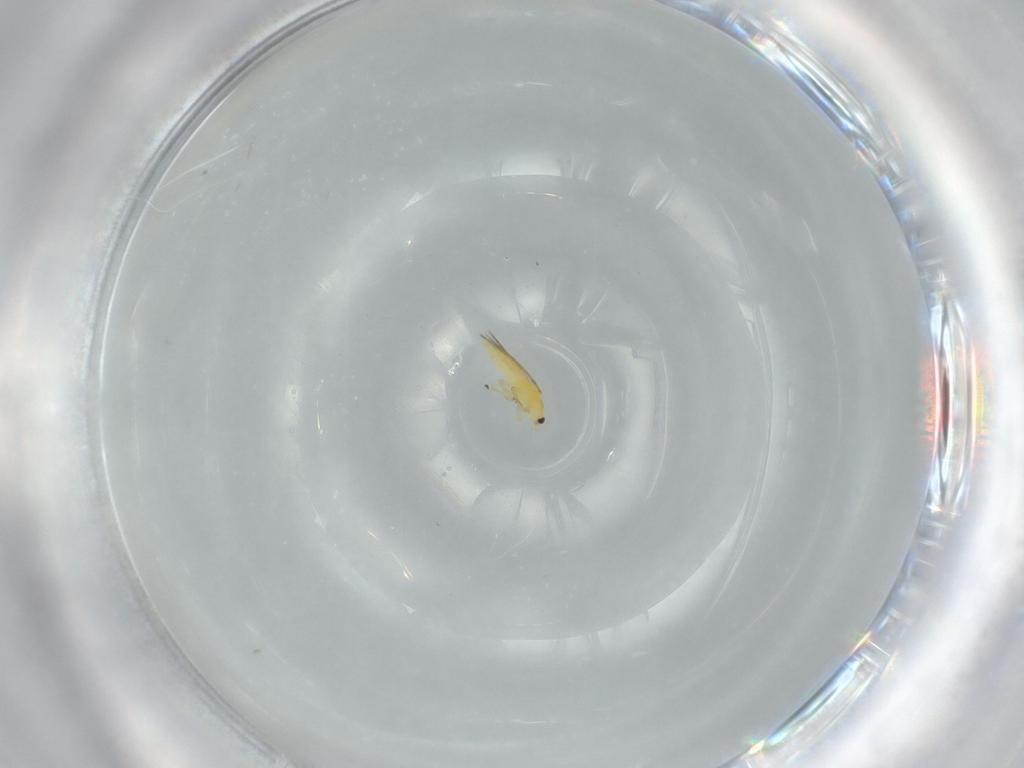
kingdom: Animalia
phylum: Arthropoda
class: Insecta
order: Thysanoptera
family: Thripidae
